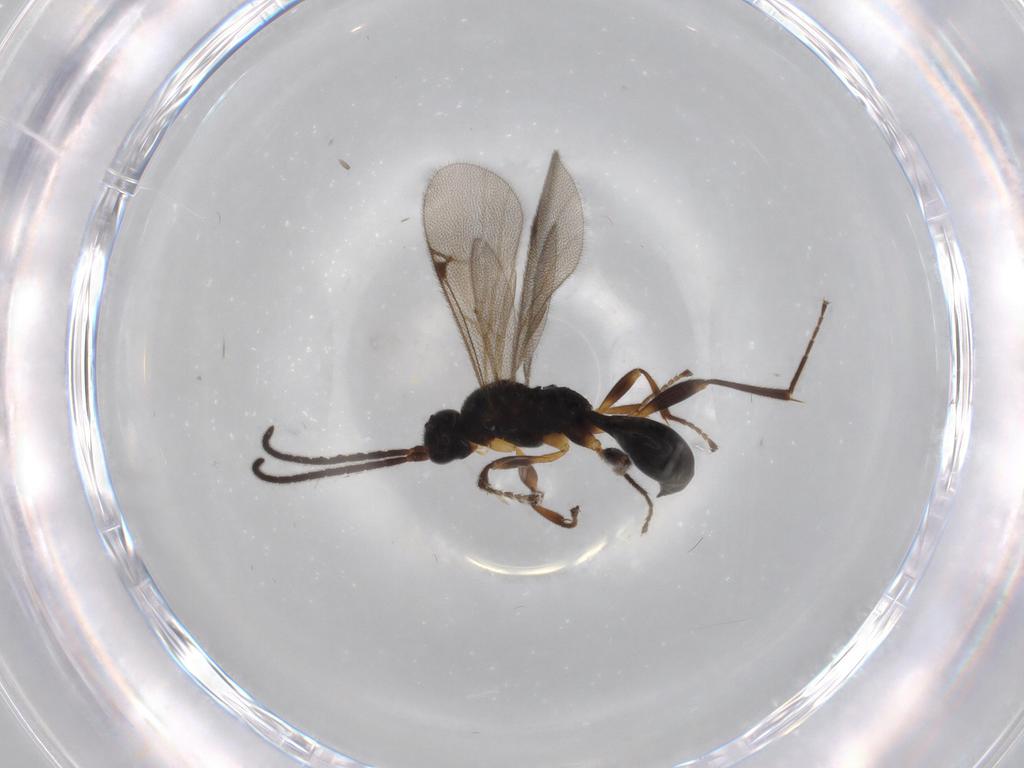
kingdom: Animalia
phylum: Arthropoda
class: Insecta
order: Hymenoptera
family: Proctotrupidae
